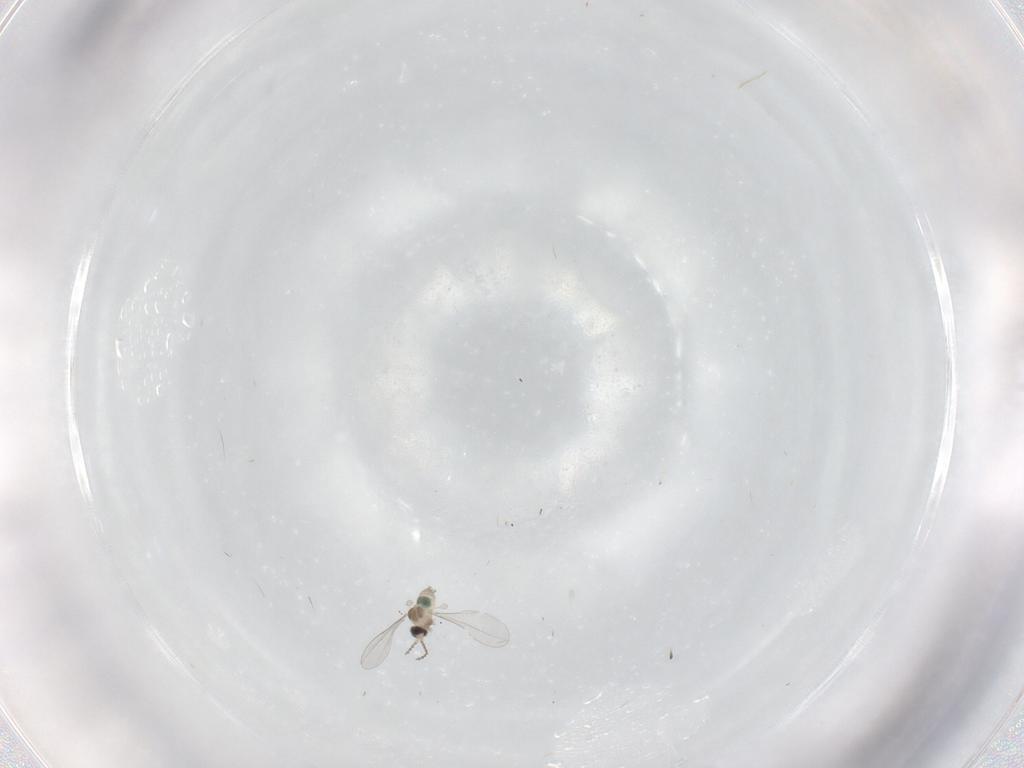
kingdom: Animalia
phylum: Arthropoda
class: Insecta
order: Diptera
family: Cecidomyiidae
